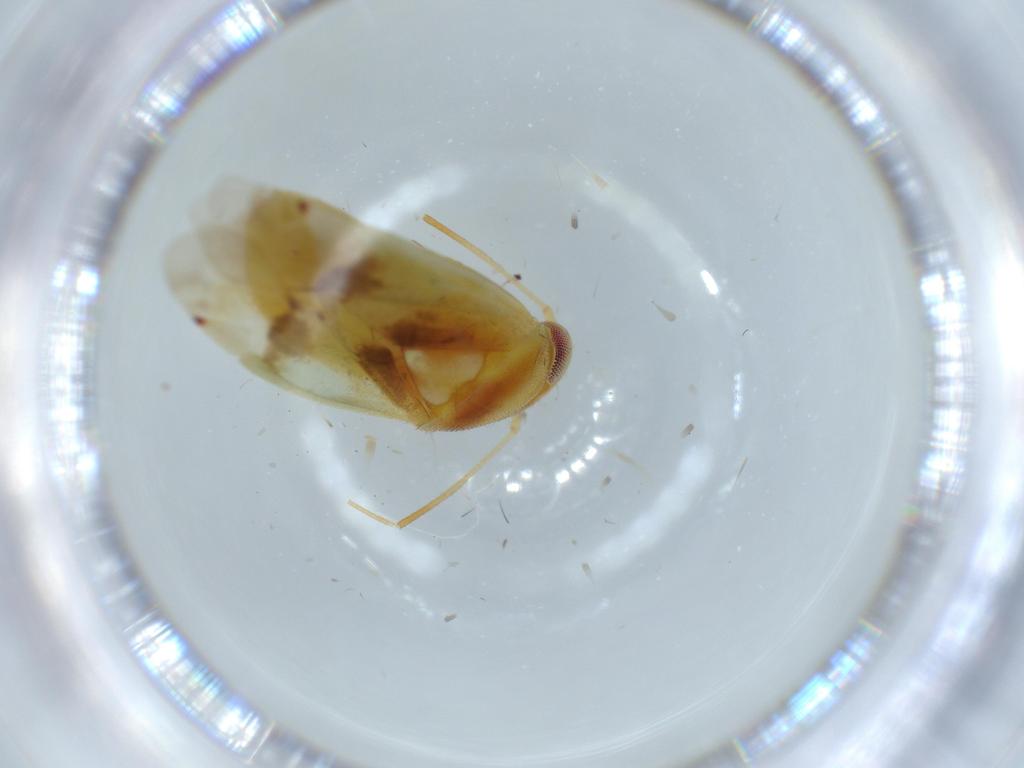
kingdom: Animalia
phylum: Arthropoda
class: Insecta
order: Hemiptera
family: Miridae
